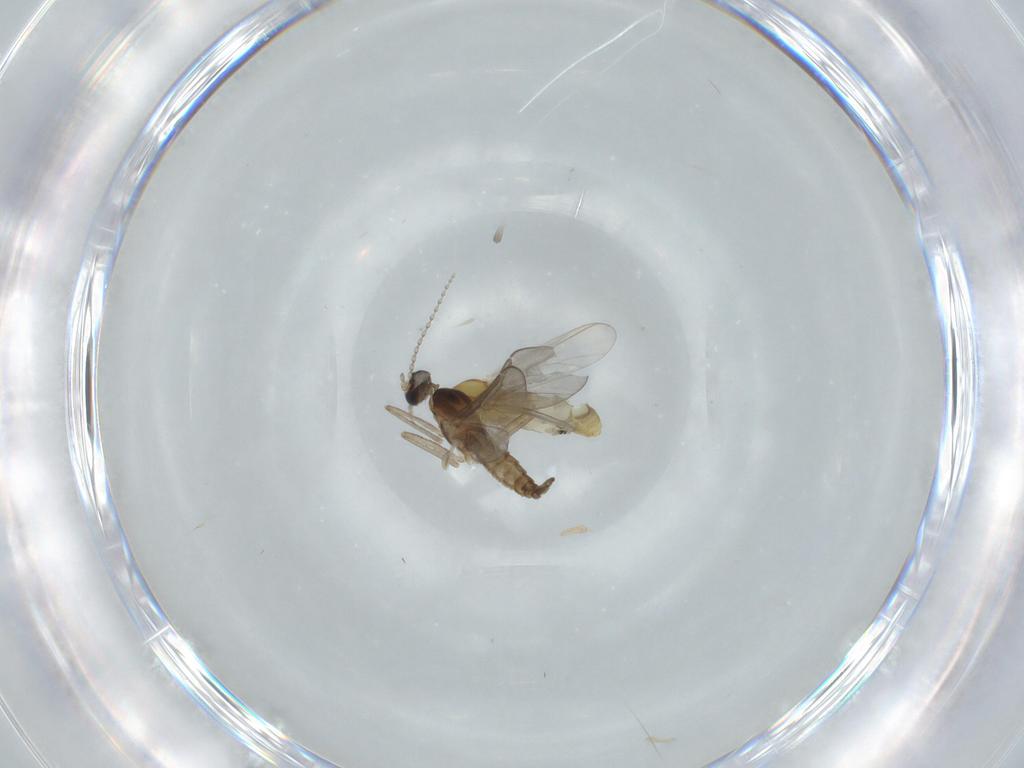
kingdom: Animalia
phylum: Arthropoda
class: Insecta
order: Diptera
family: Chironomidae
